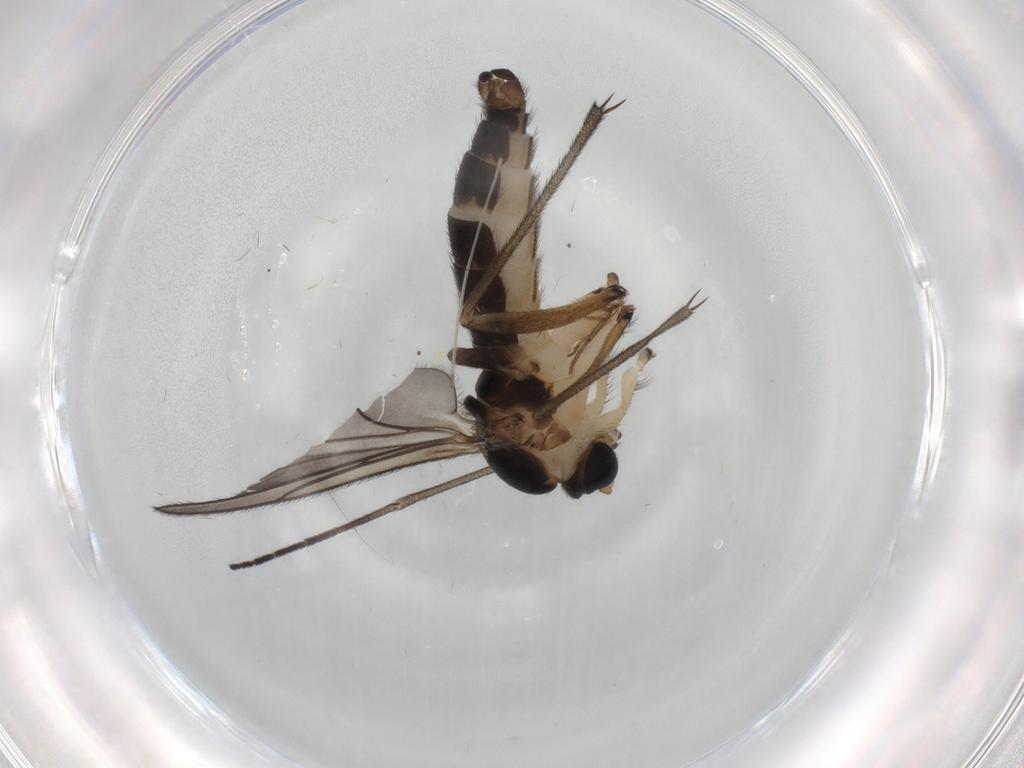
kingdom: Animalia
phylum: Arthropoda
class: Insecta
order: Diptera
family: Sciaridae
